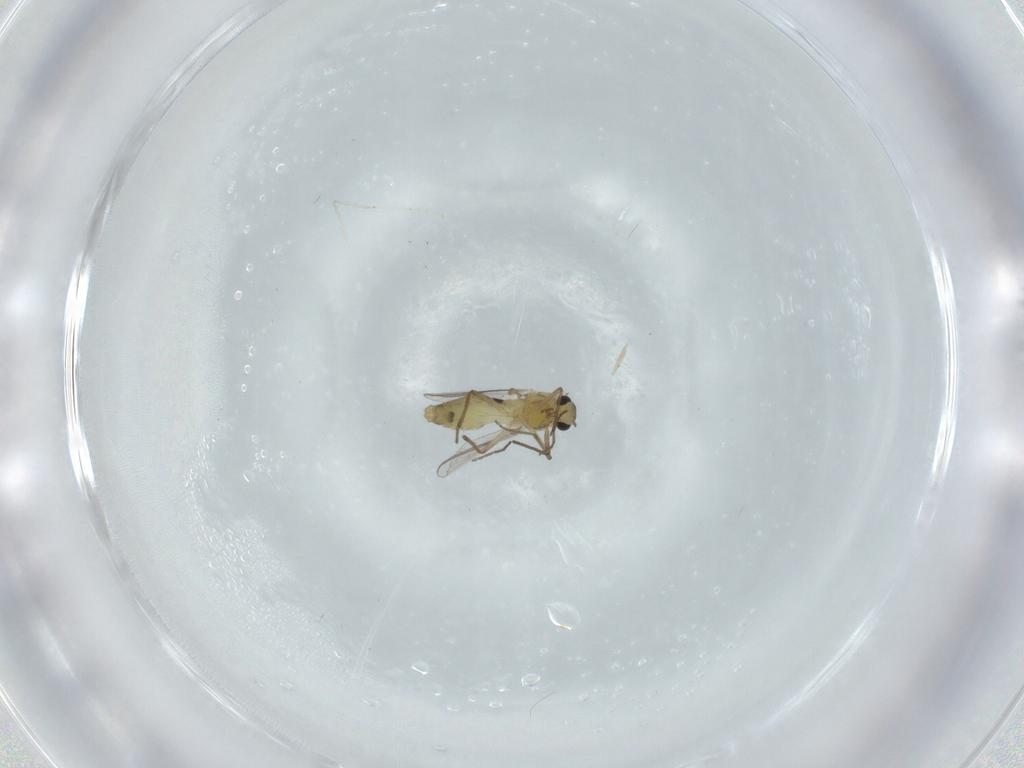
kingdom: Animalia
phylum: Arthropoda
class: Insecta
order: Diptera
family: Chironomidae
